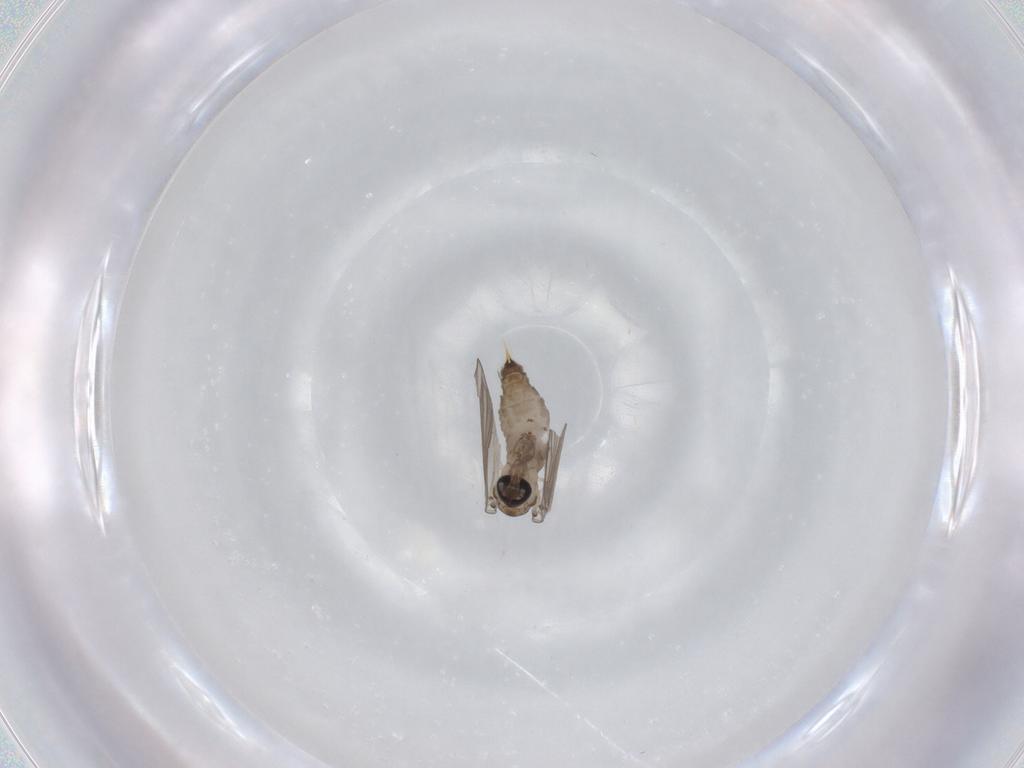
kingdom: Animalia
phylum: Arthropoda
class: Insecta
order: Diptera
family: Psychodidae
